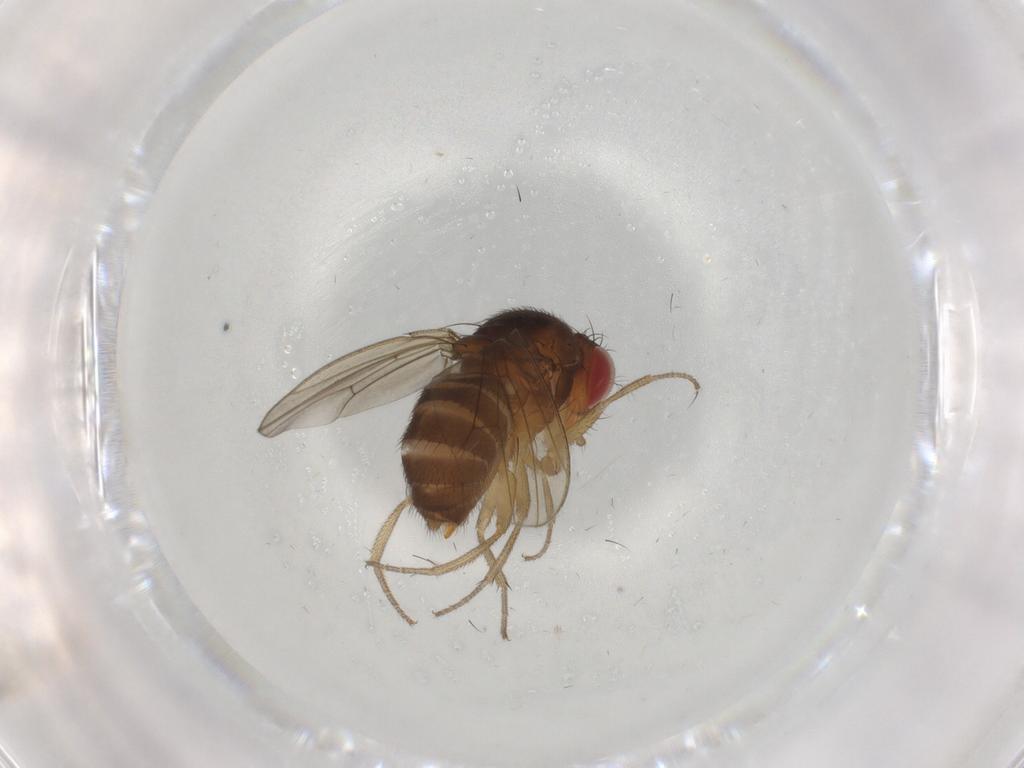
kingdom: Animalia
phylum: Arthropoda
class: Insecta
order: Diptera
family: Drosophilidae
